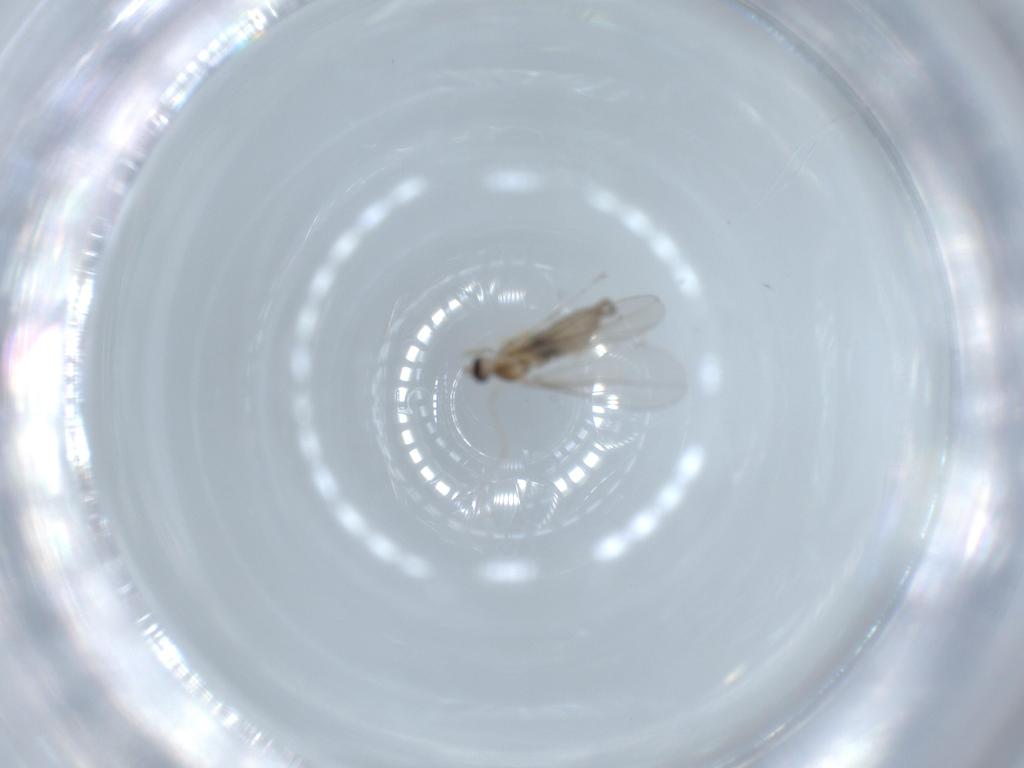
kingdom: Animalia
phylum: Arthropoda
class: Insecta
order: Diptera
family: Cecidomyiidae
